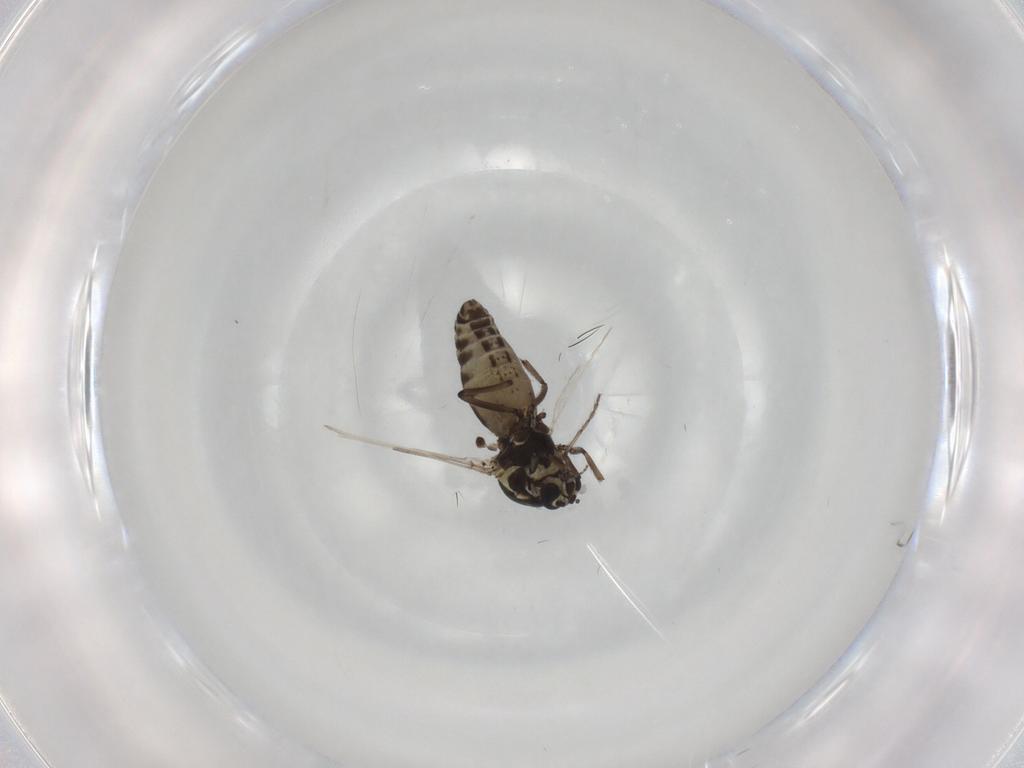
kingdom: Animalia
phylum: Arthropoda
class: Insecta
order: Diptera
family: Ceratopogonidae
